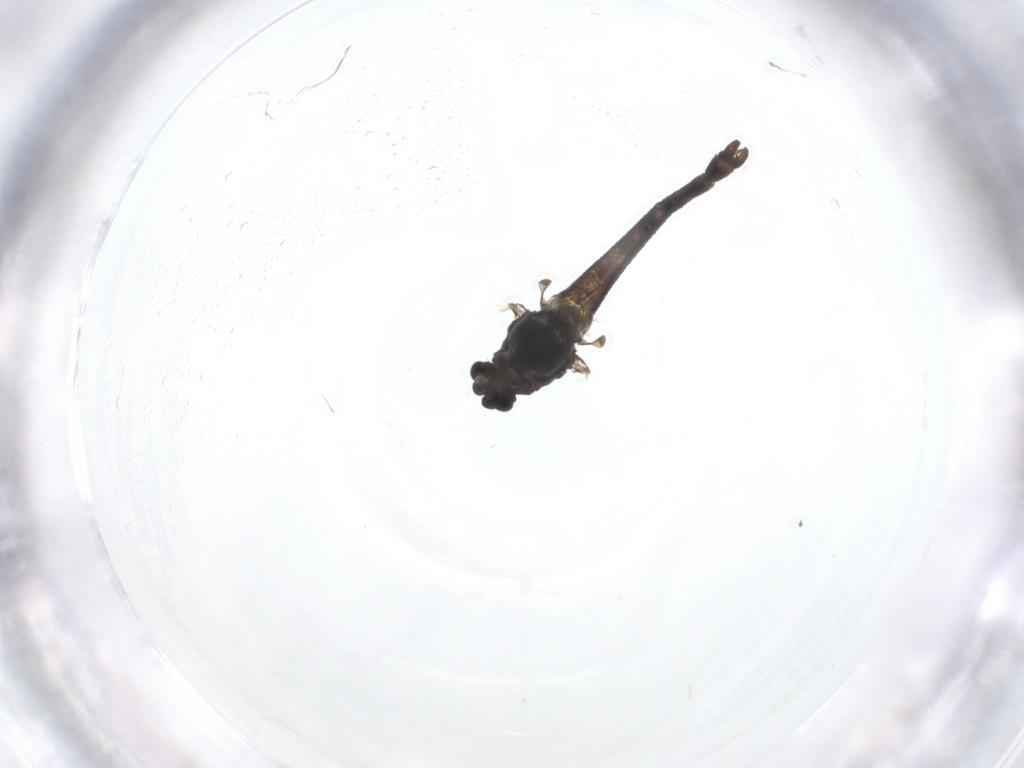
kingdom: Animalia
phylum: Arthropoda
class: Insecta
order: Diptera
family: Chironomidae
